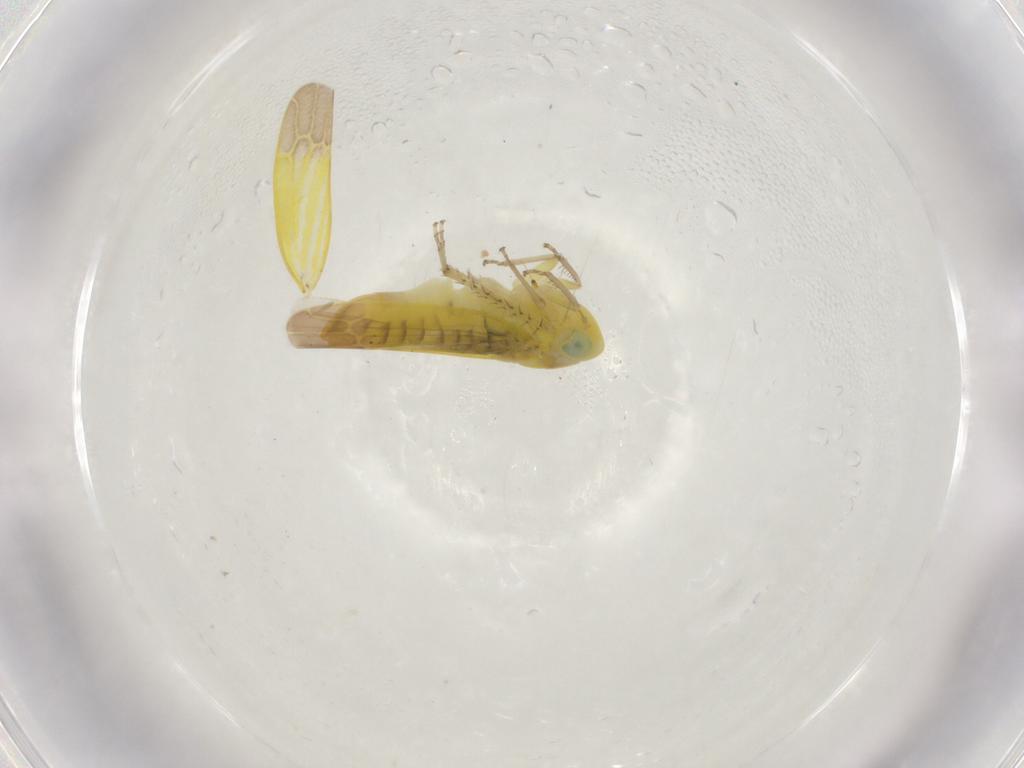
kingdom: Animalia
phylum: Arthropoda
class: Insecta
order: Hemiptera
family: Cicadellidae
